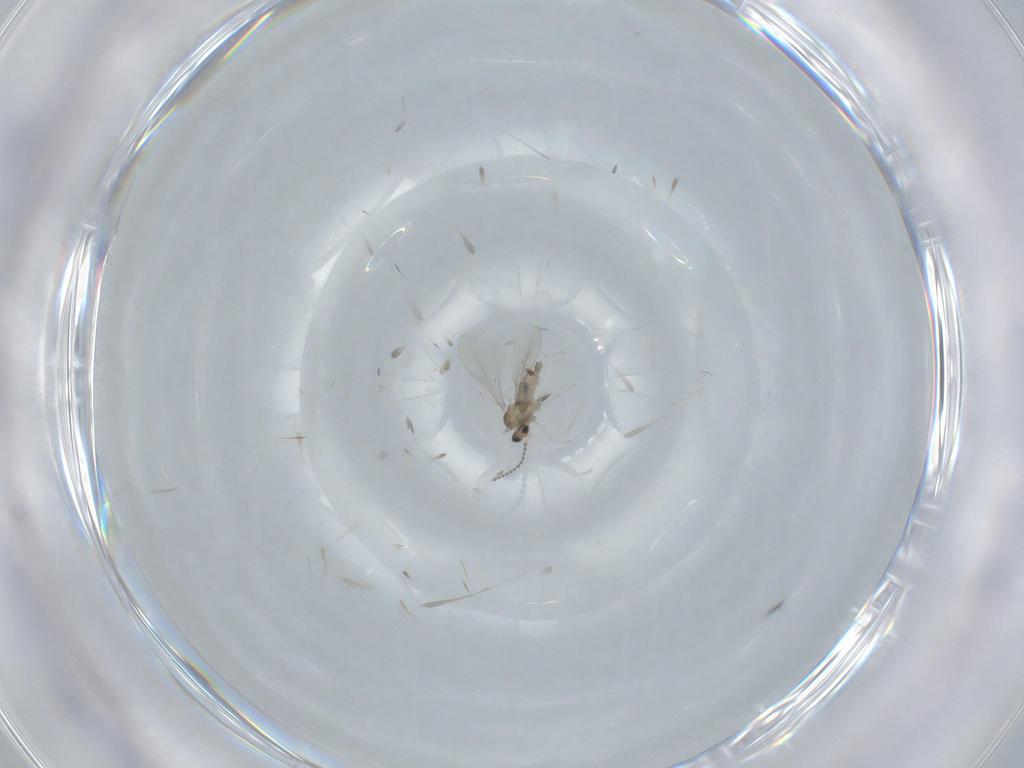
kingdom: Animalia
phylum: Arthropoda
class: Insecta
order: Diptera
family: Cecidomyiidae
